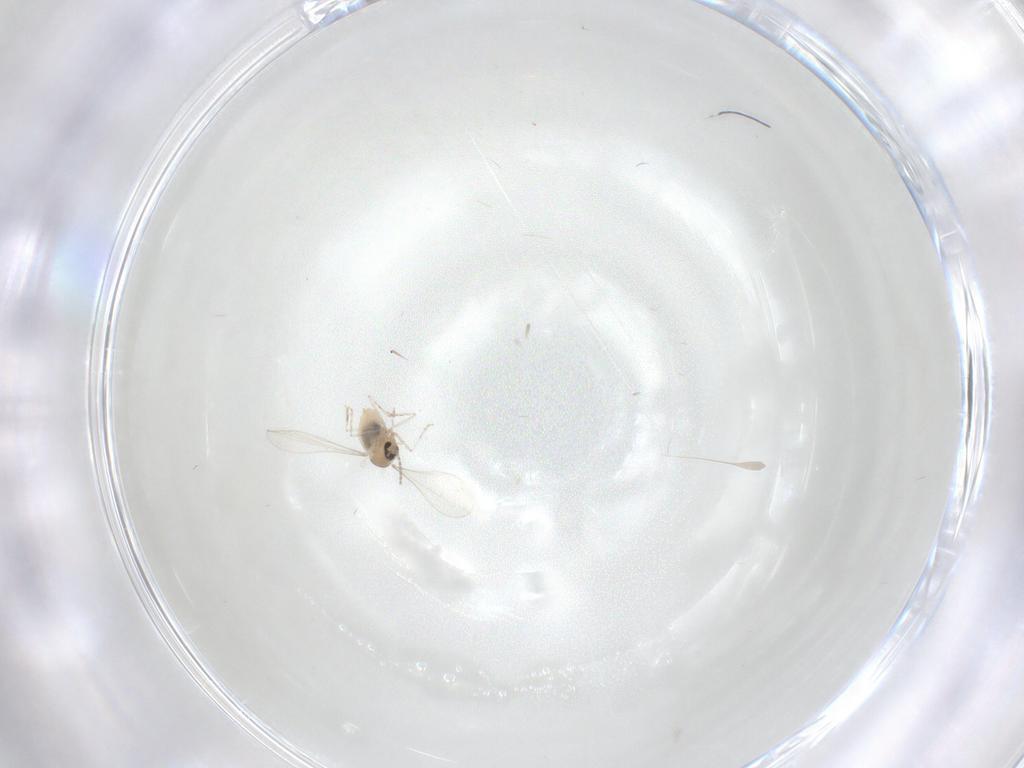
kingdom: Animalia
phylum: Arthropoda
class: Insecta
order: Diptera
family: Cecidomyiidae
